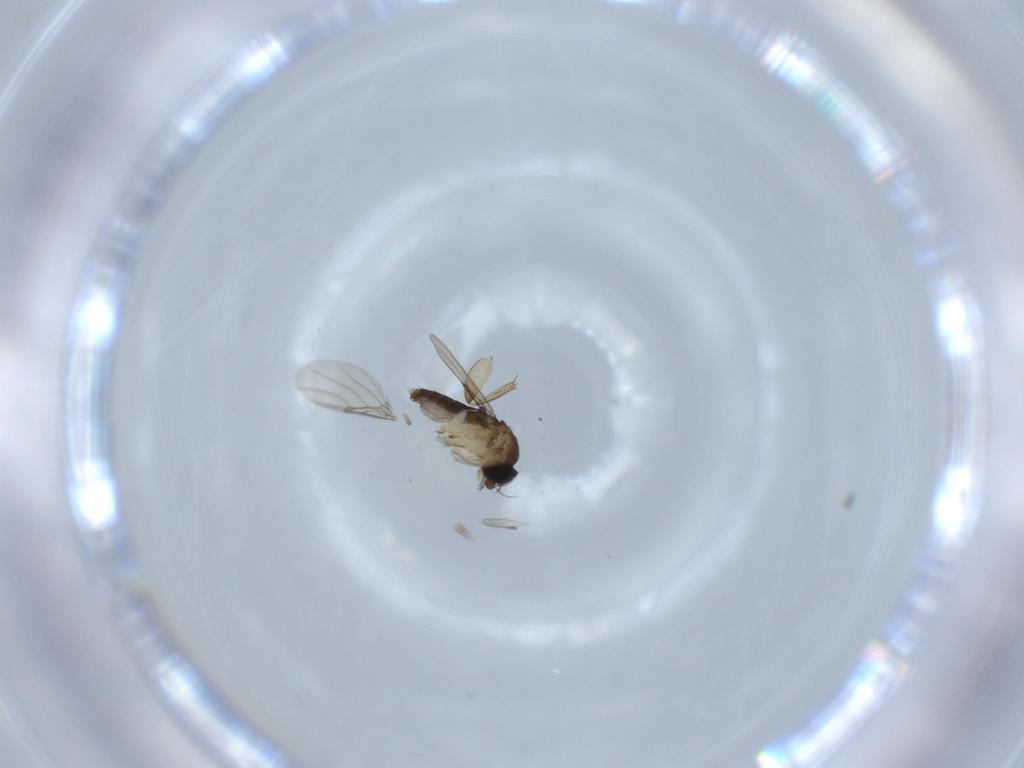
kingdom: Animalia
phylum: Arthropoda
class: Insecta
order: Diptera
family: Phoridae
